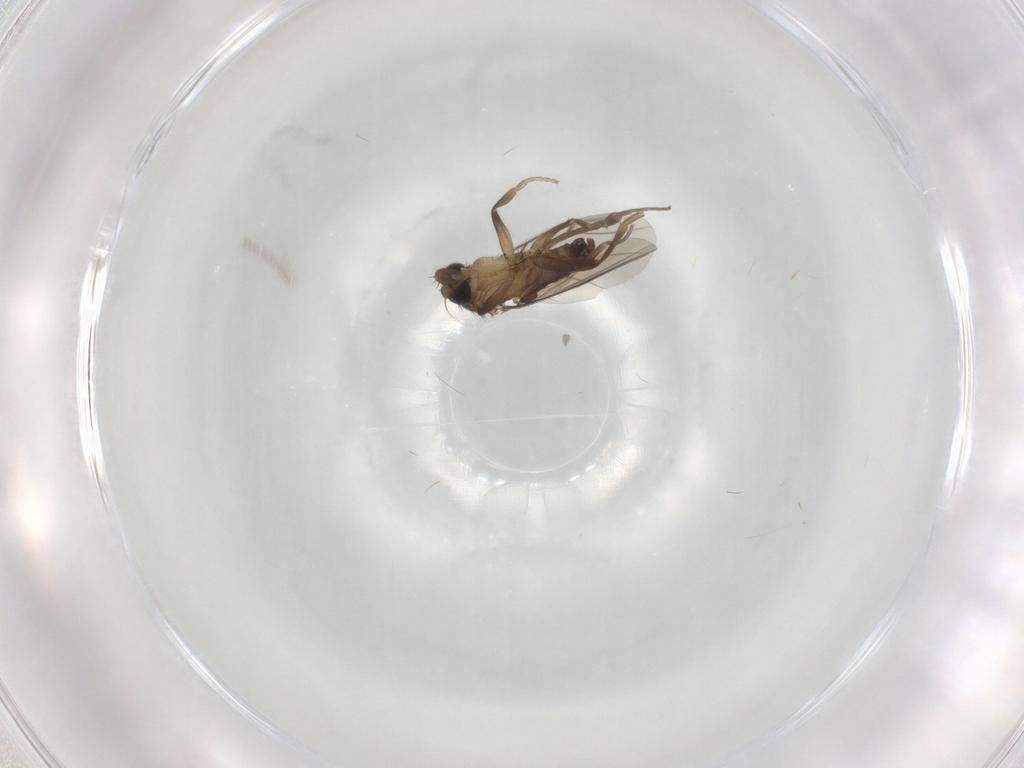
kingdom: Animalia
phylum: Arthropoda
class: Insecta
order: Diptera
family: Phoridae
